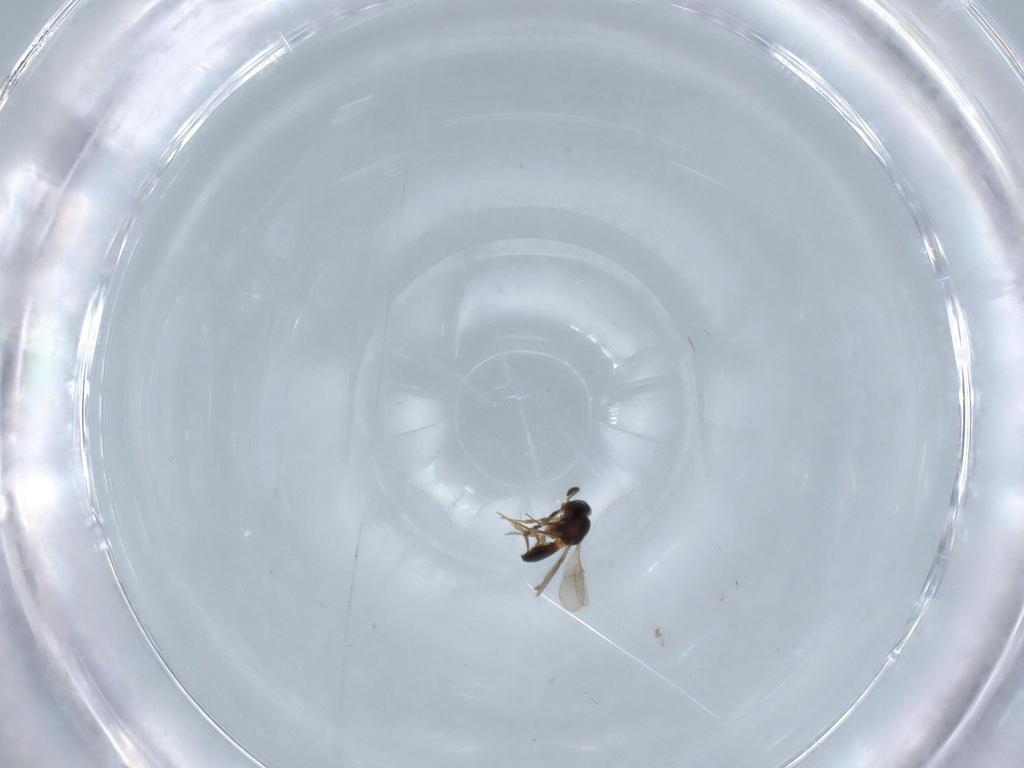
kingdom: Animalia
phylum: Arthropoda
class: Insecta
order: Hymenoptera
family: Scelionidae
